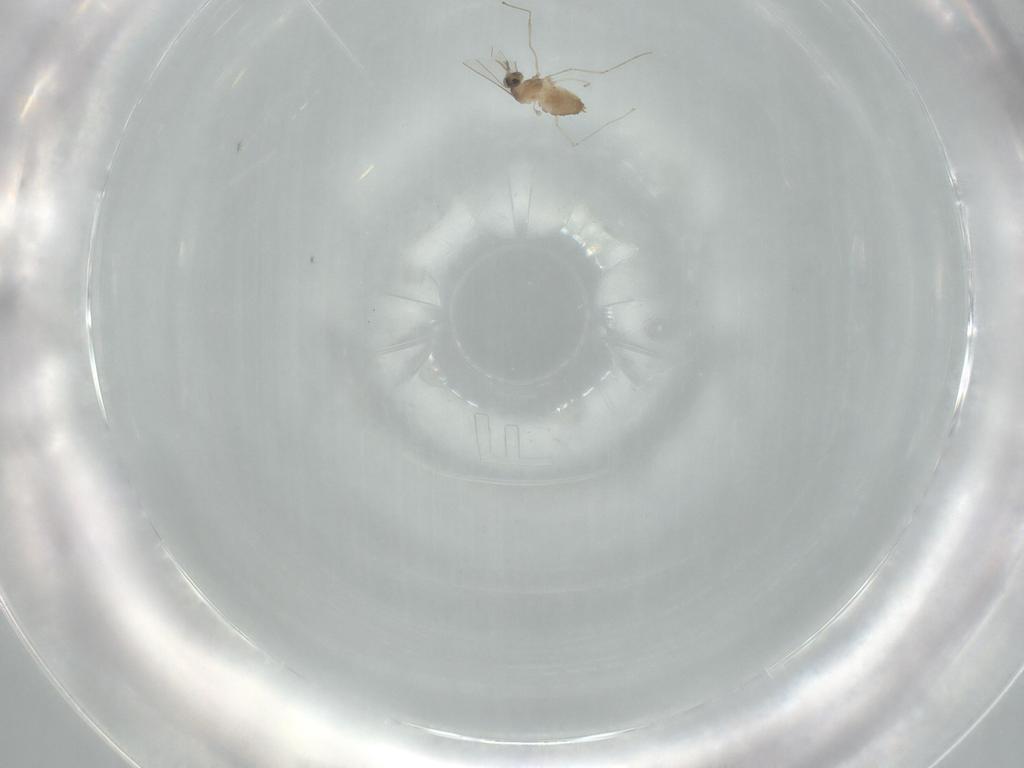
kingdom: Animalia
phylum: Arthropoda
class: Insecta
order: Diptera
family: Cecidomyiidae
